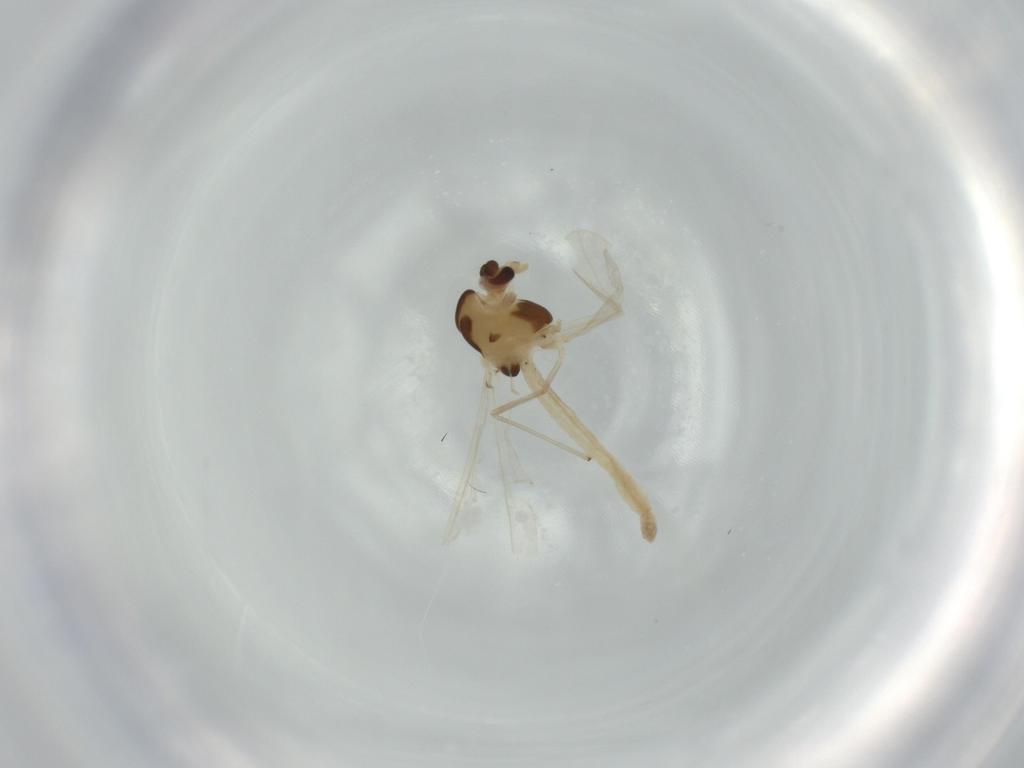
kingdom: Animalia
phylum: Arthropoda
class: Insecta
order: Diptera
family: Chironomidae
